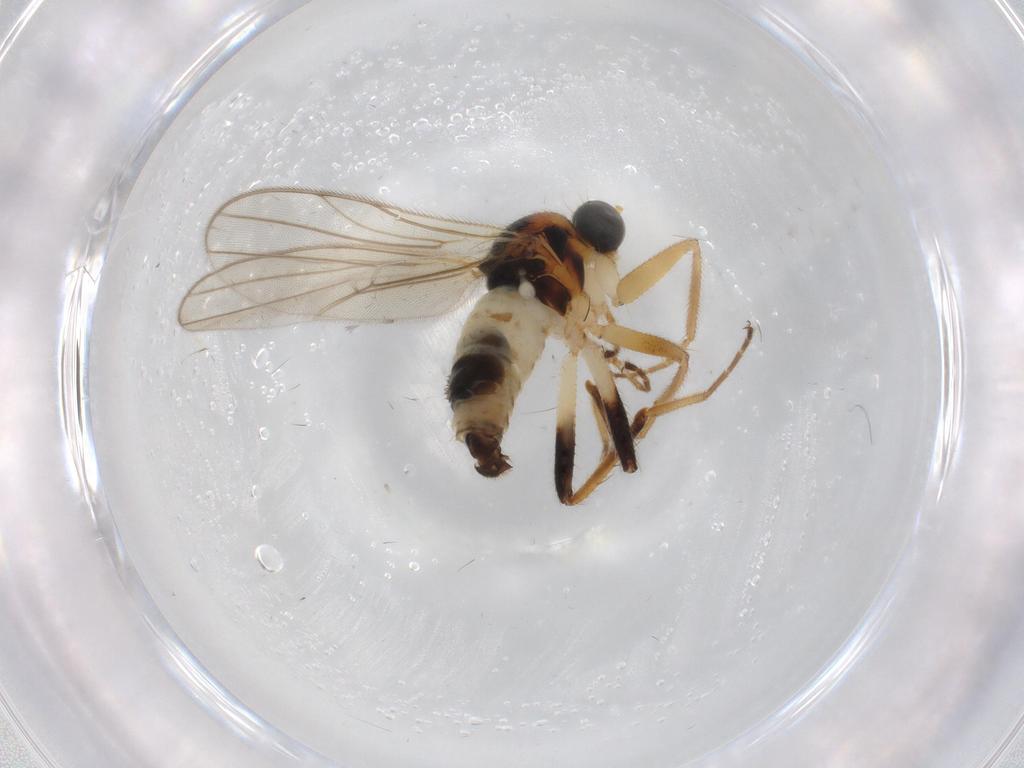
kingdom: Animalia
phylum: Arthropoda
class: Insecta
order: Diptera
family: Hybotidae
